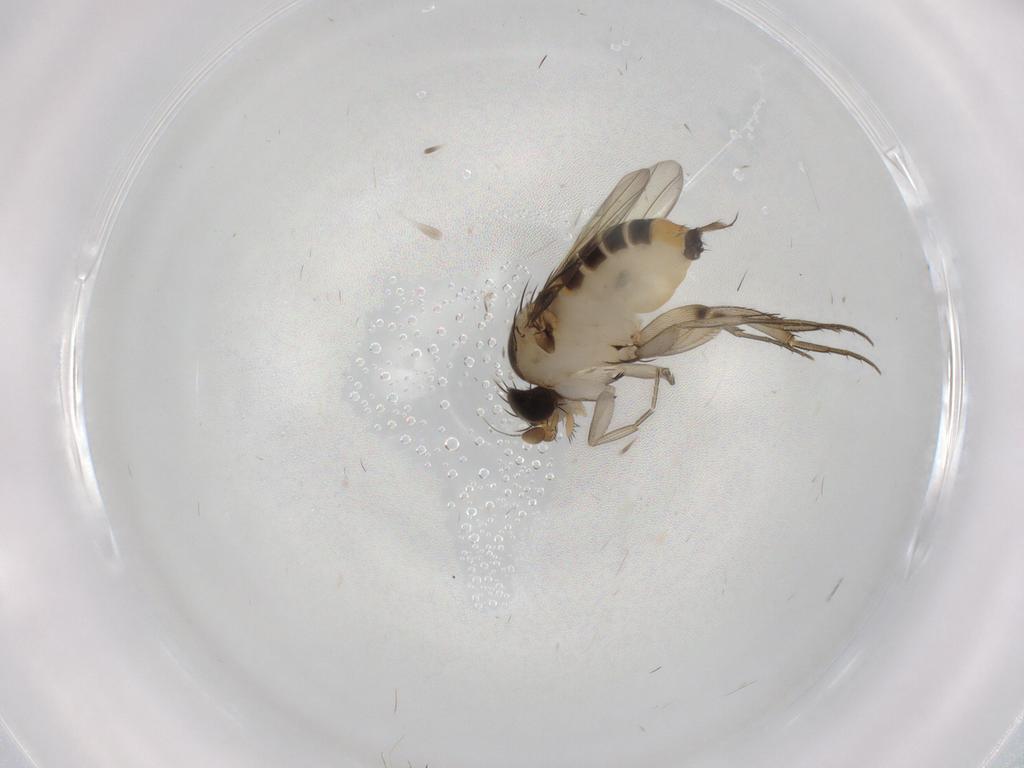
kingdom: Animalia
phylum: Arthropoda
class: Insecta
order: Diptera
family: Phoridae
